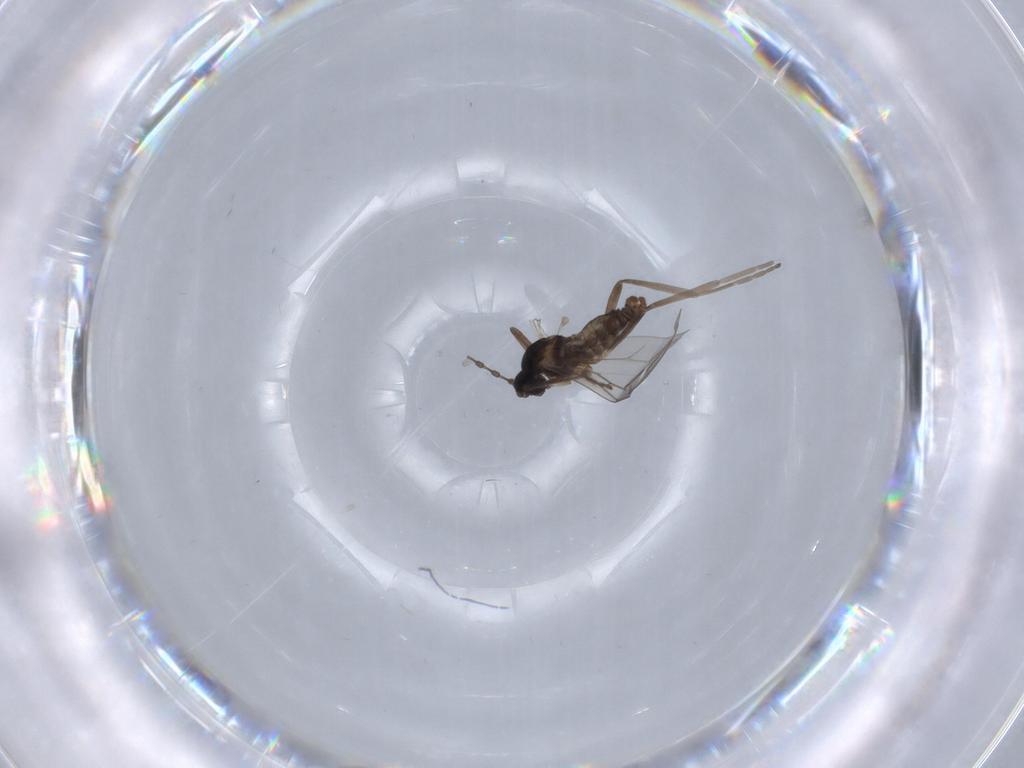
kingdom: Animalia
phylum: Arthropoda
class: Insecta
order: Diptera
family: Cecidomyiidae
